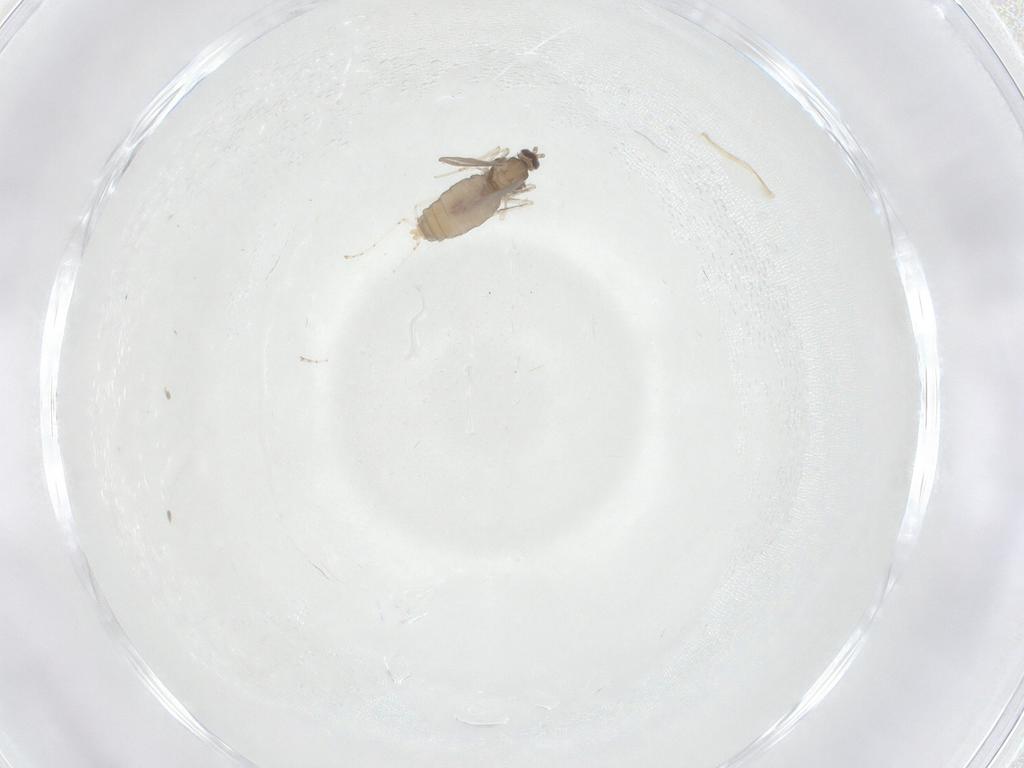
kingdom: Animalia
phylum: Arthropoda
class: Insecta
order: Diptera
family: Cecidomyiidae
